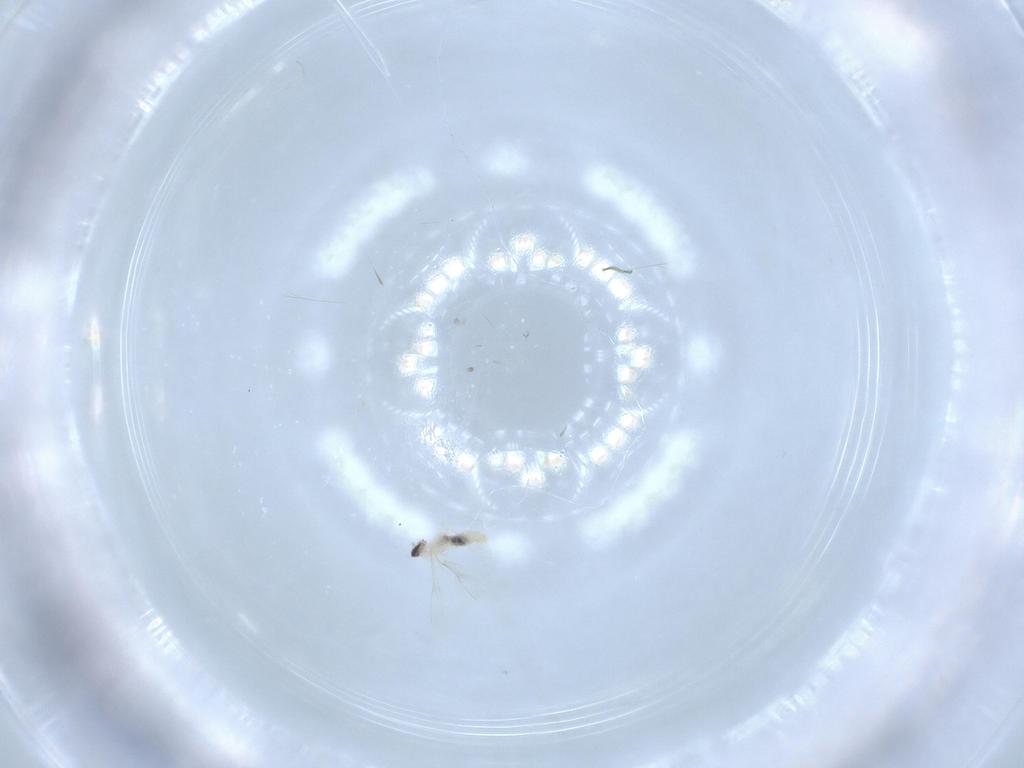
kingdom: Animalia
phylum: Arthropoda
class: Insecta
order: Diptera
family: Cecidomyiidae
